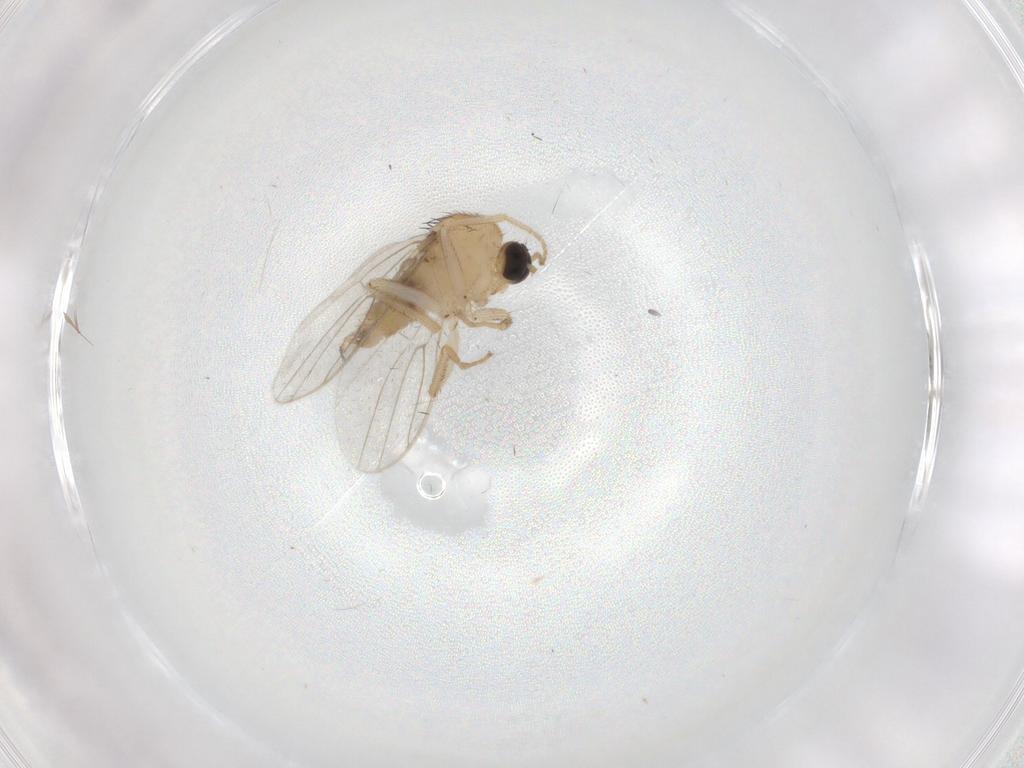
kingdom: Animalia
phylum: Arthropoda
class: Insecta
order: Diptera
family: Hybotidae
